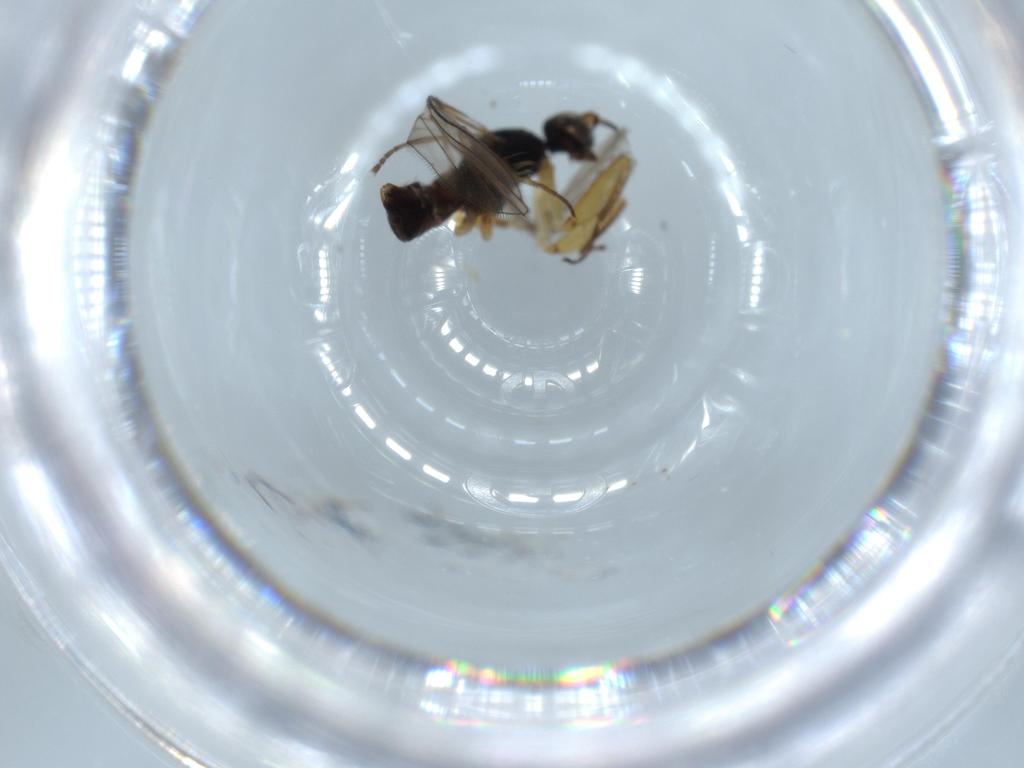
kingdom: Animalia
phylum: Arthropoda
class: Insecta
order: Diptera
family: Empididae
